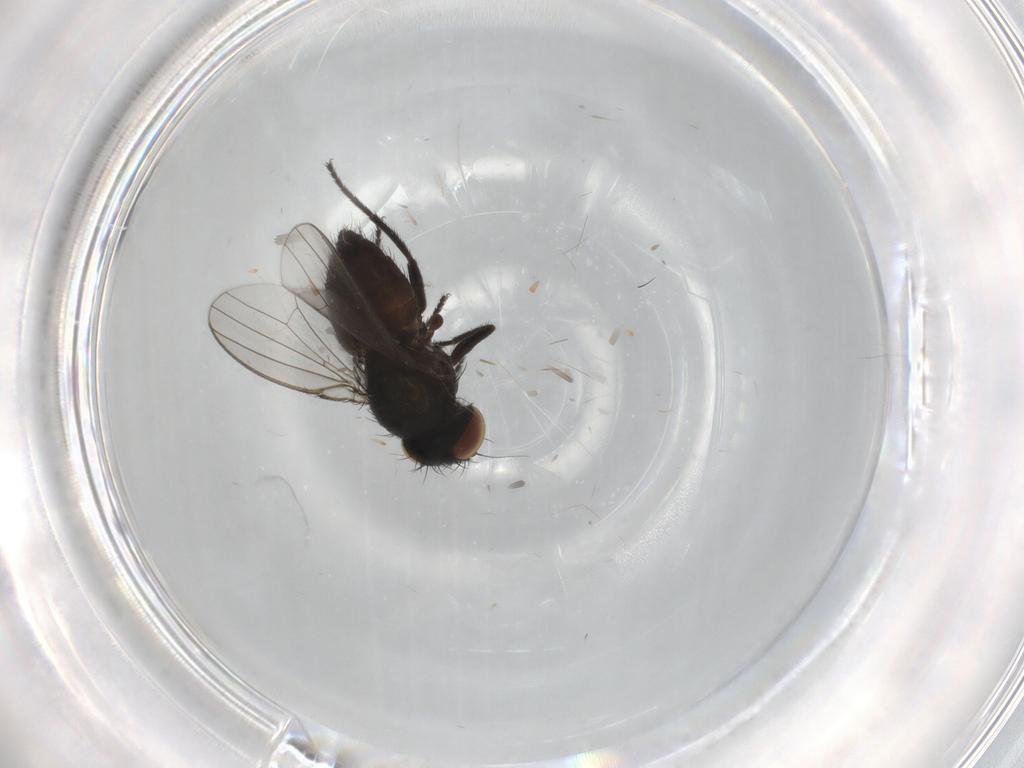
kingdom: Animalia
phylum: Arthropoda
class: Insecta
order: Diptera
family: Milichiidae
